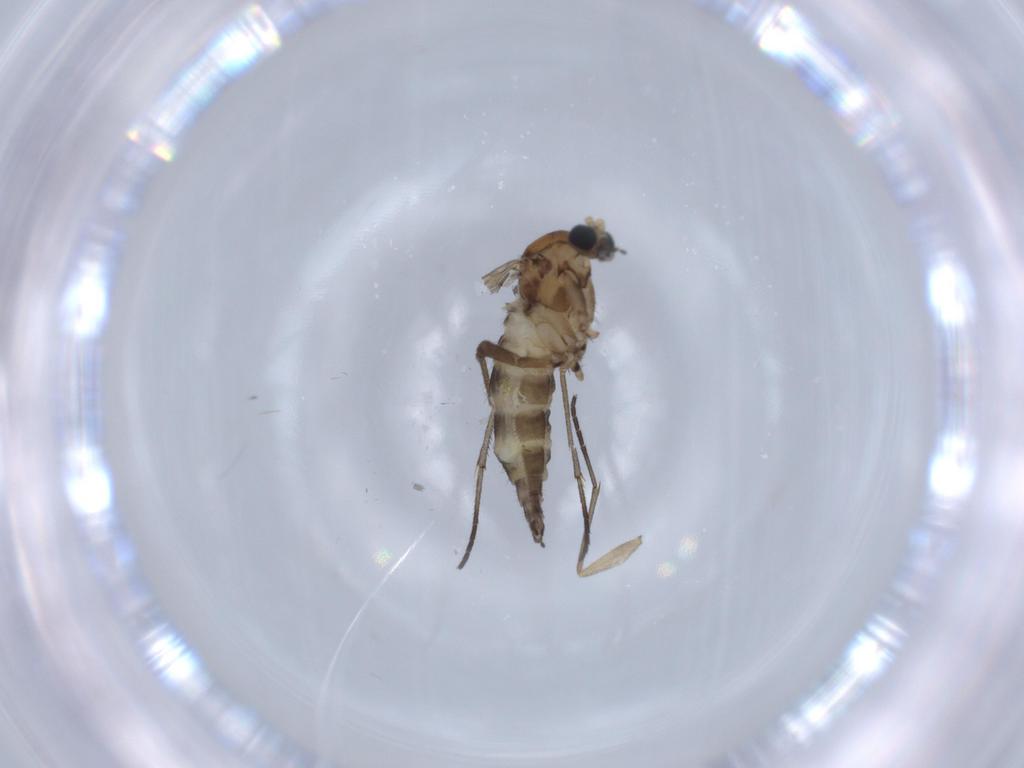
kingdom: Animalia
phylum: Arthropoda
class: Insecta
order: Diptera
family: Sciaridae
